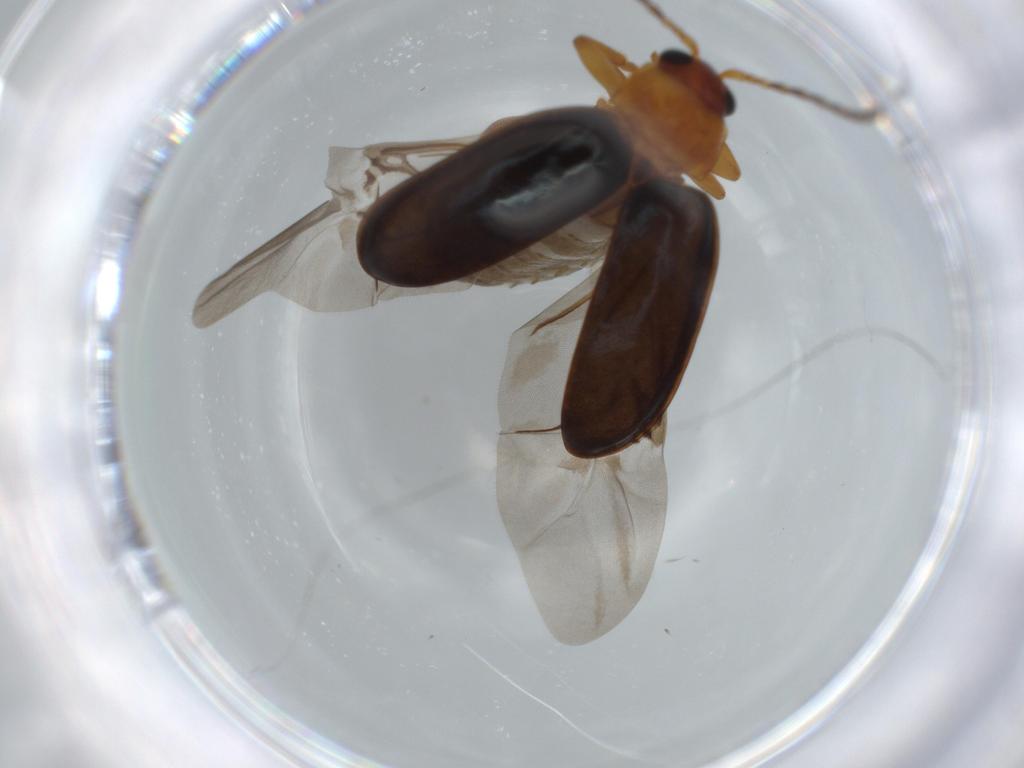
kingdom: Animalia
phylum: Arthropoda
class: Insecta
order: Coleoptera
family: Chrysomelidae
